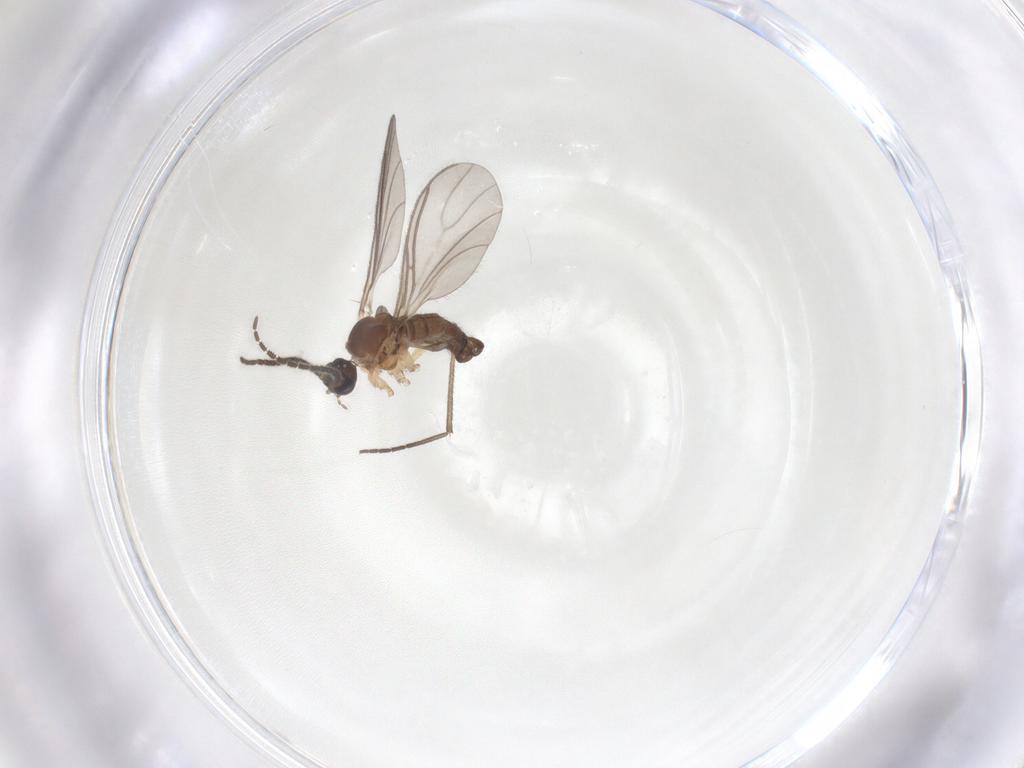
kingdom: Animalia
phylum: Arthropoda
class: Insecta
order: Diptera
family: Sciaridae
